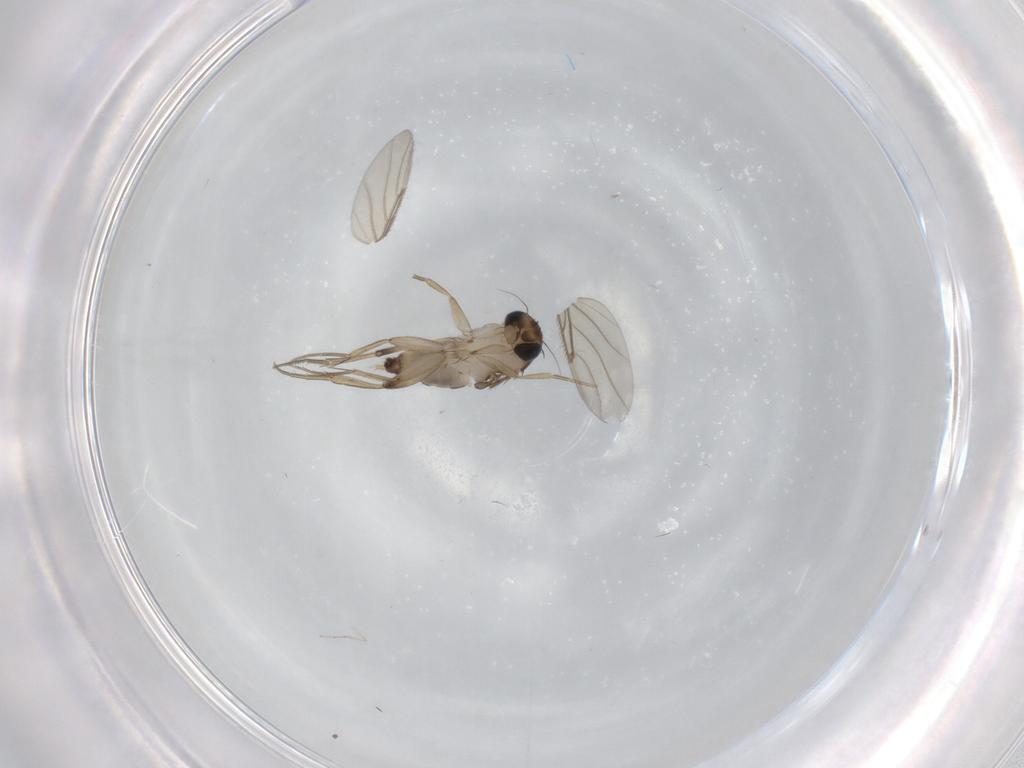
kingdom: Animalia
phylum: Arthropoda
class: Insecta
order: Diptera
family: Phoridae
